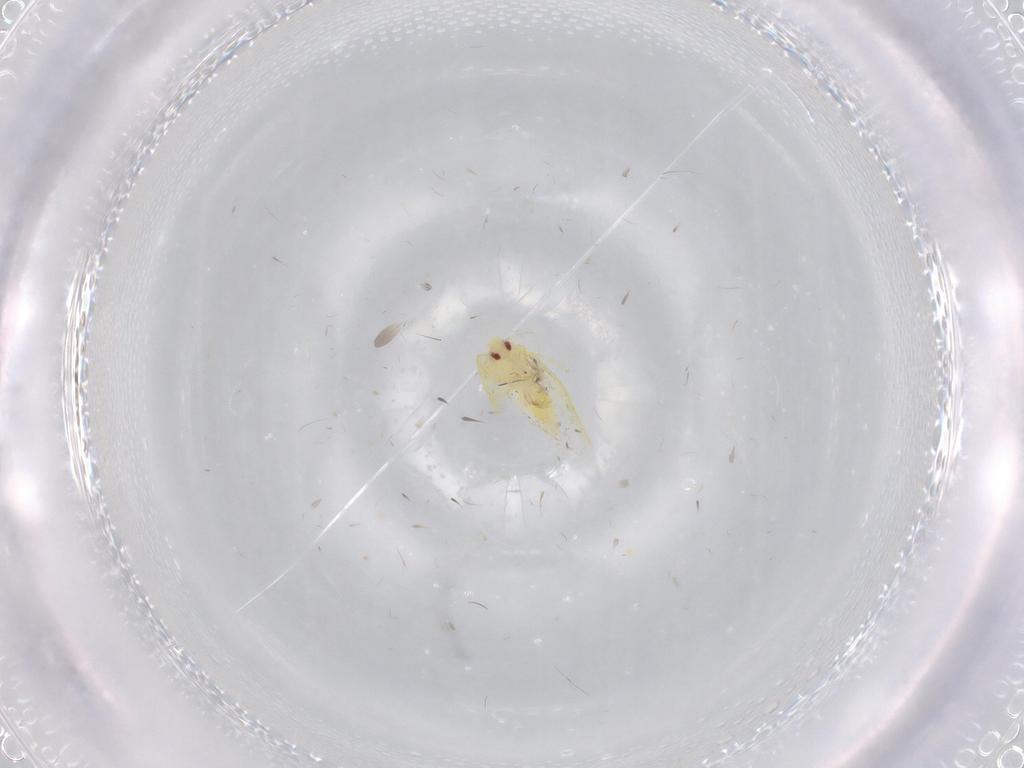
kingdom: Animalia
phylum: Arthropoda
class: Insecta
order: Hemiptera
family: Aleyrodidae
